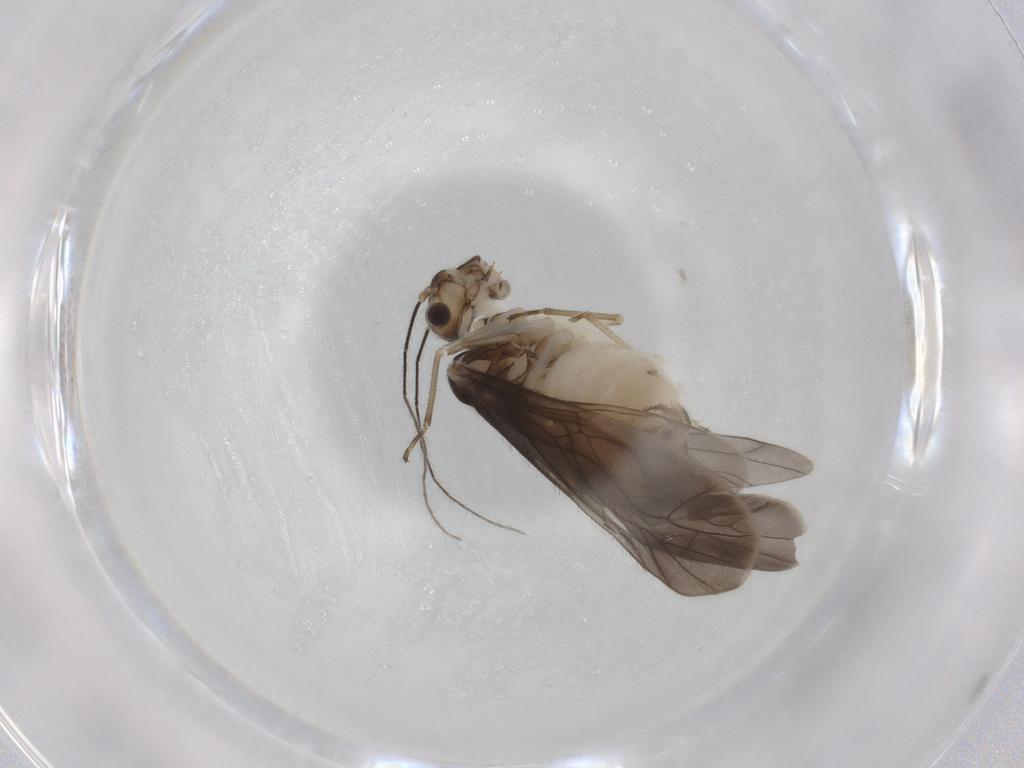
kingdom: Animalia
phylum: Arthropoda
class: Insecta
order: Psocodea
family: Caeciliusidae
